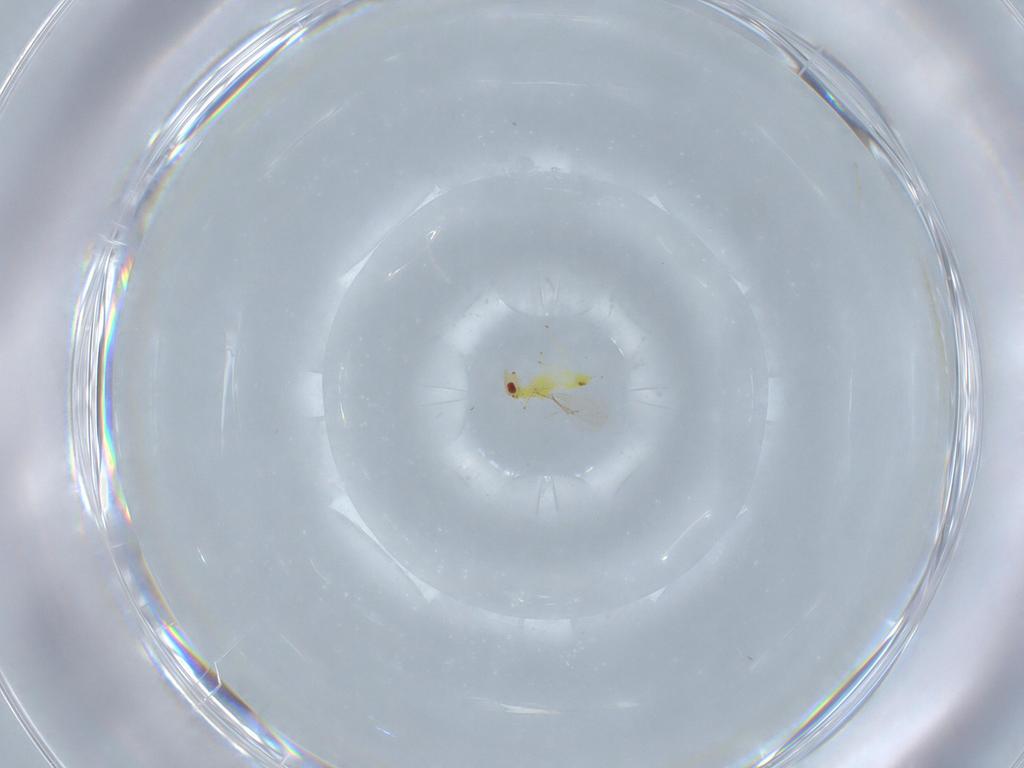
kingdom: Animalia
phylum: Arthropoda
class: Insecta
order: Hymenoptera
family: Eulophidae
